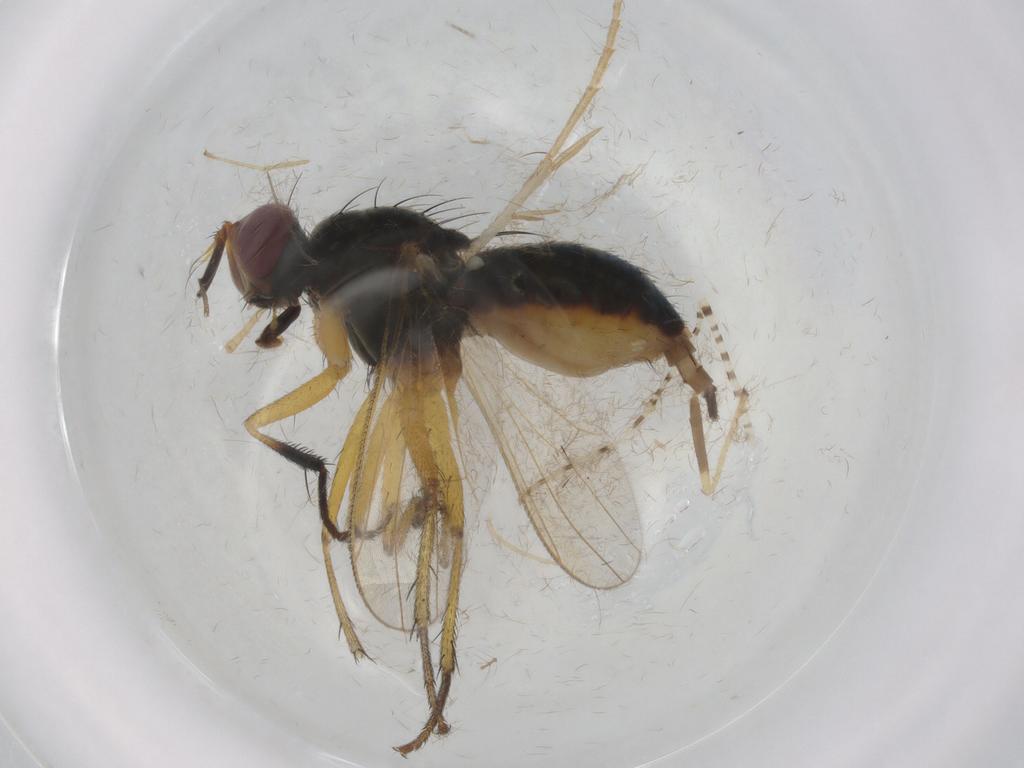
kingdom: Animalia
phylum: Arthropoda
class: Insecta
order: Diptera
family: Muscidae
